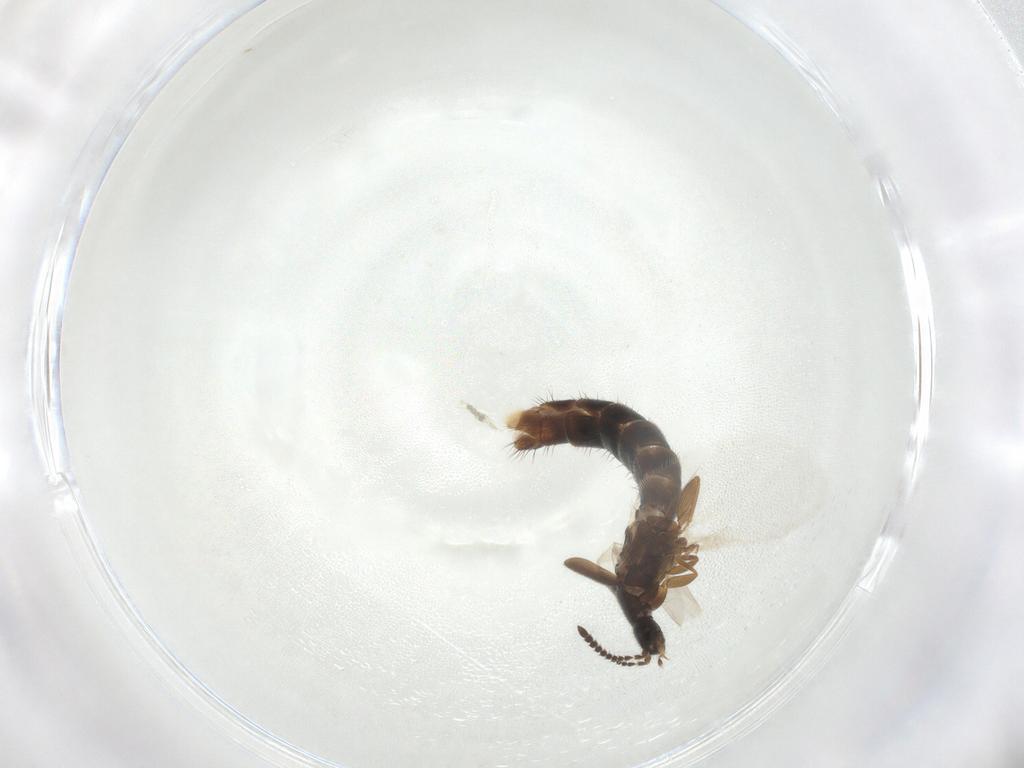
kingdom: Animalia
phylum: Arthropoda
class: Insecta
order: Coleoptera
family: Staphylinidae
